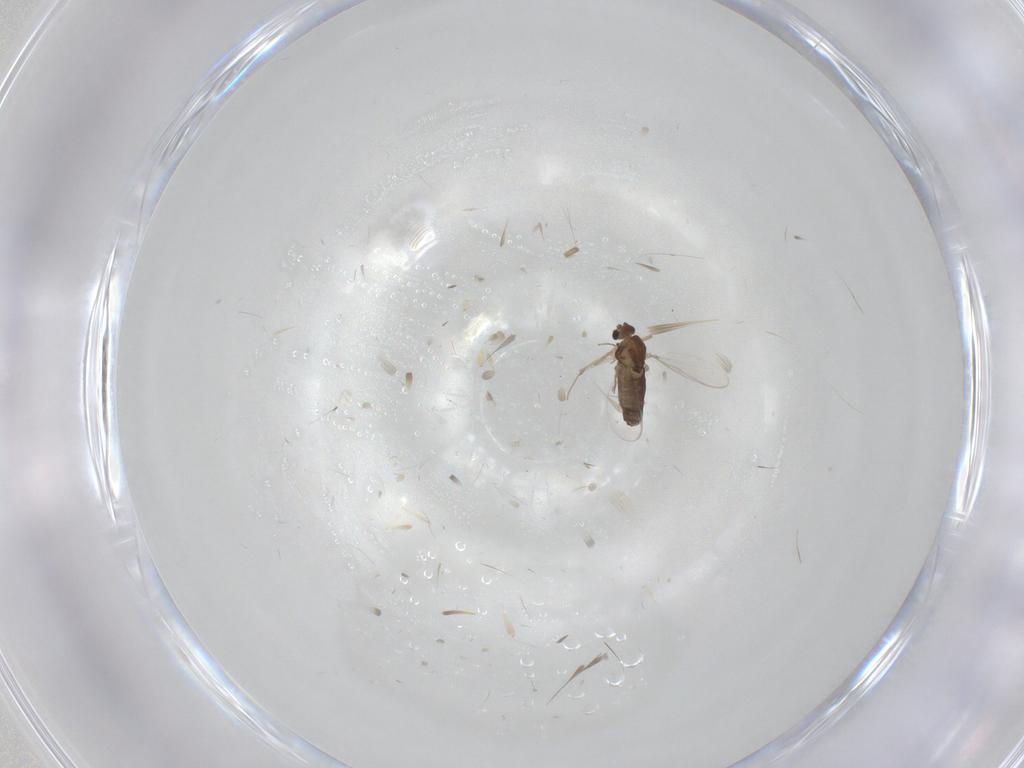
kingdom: Animalia
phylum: Arthropoda
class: Insecta
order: Diptera
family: Chironomidae
